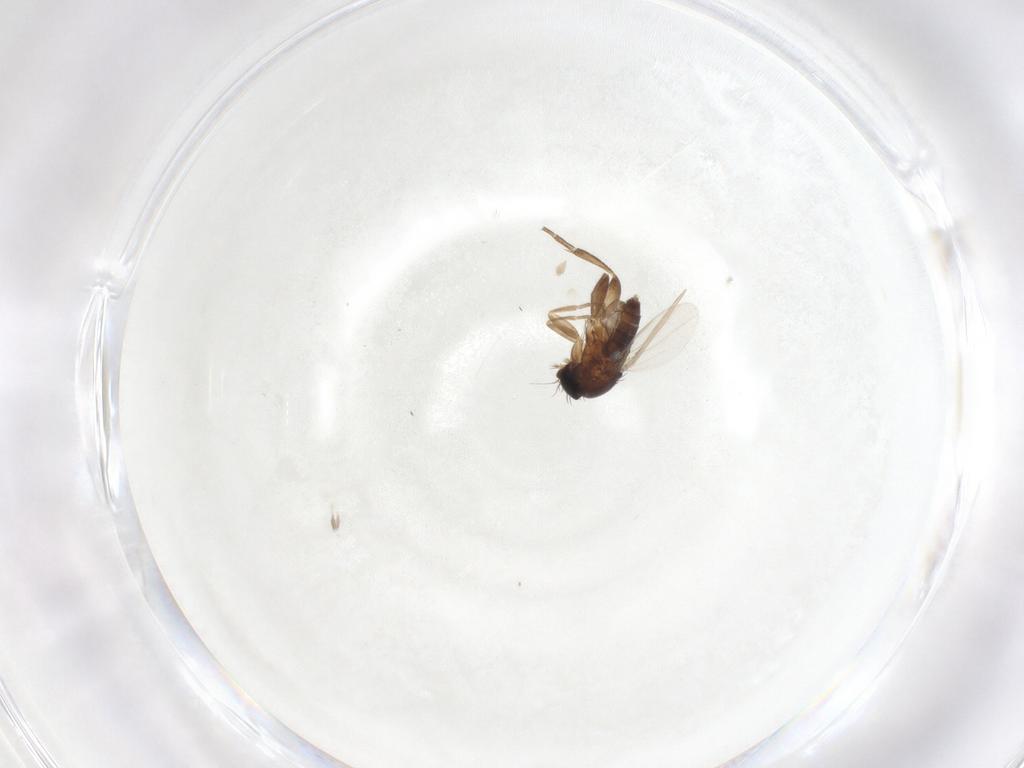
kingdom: Animalia
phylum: Arthropoda
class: Insecta
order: Diptera
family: Phoridae
